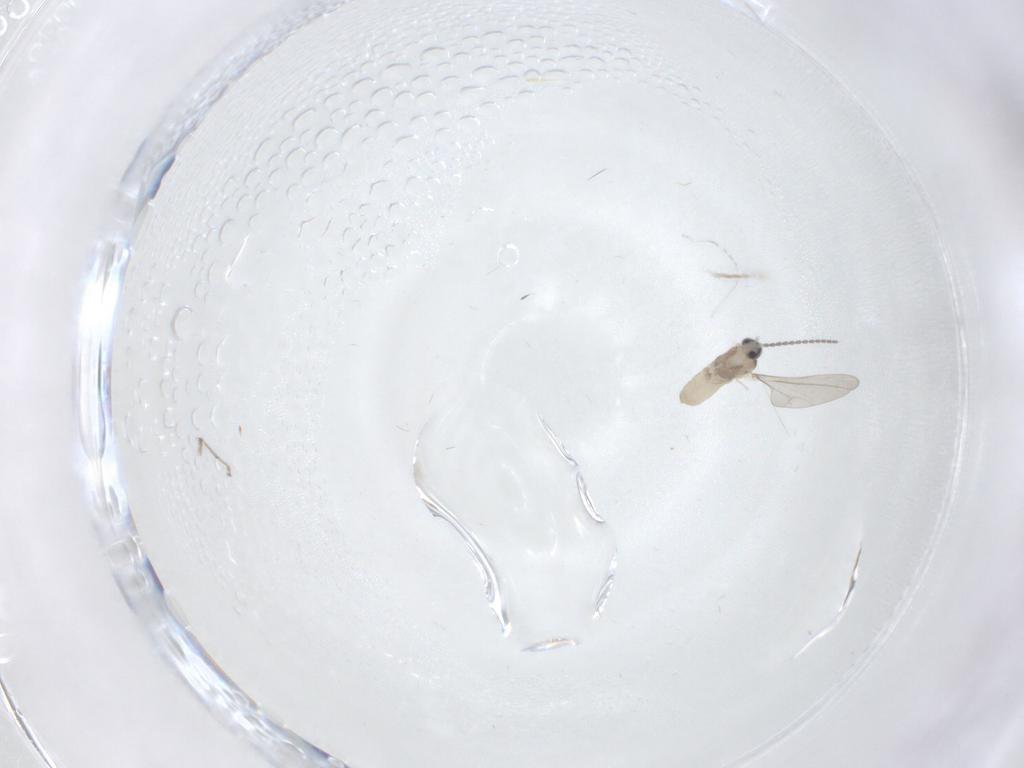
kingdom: Animalia
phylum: Arthropoda
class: Insecta
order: Diptera
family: Chironomidae
